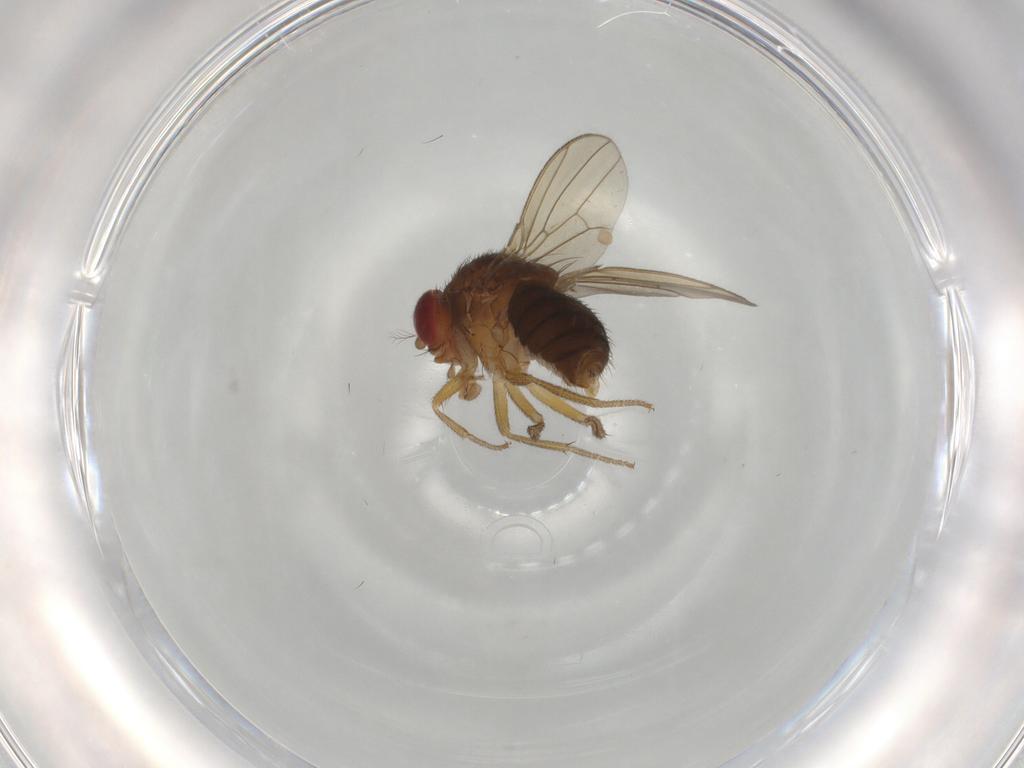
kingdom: Animalia
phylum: Arthropoda
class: Insecta
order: Diptera
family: Drosophilidae
